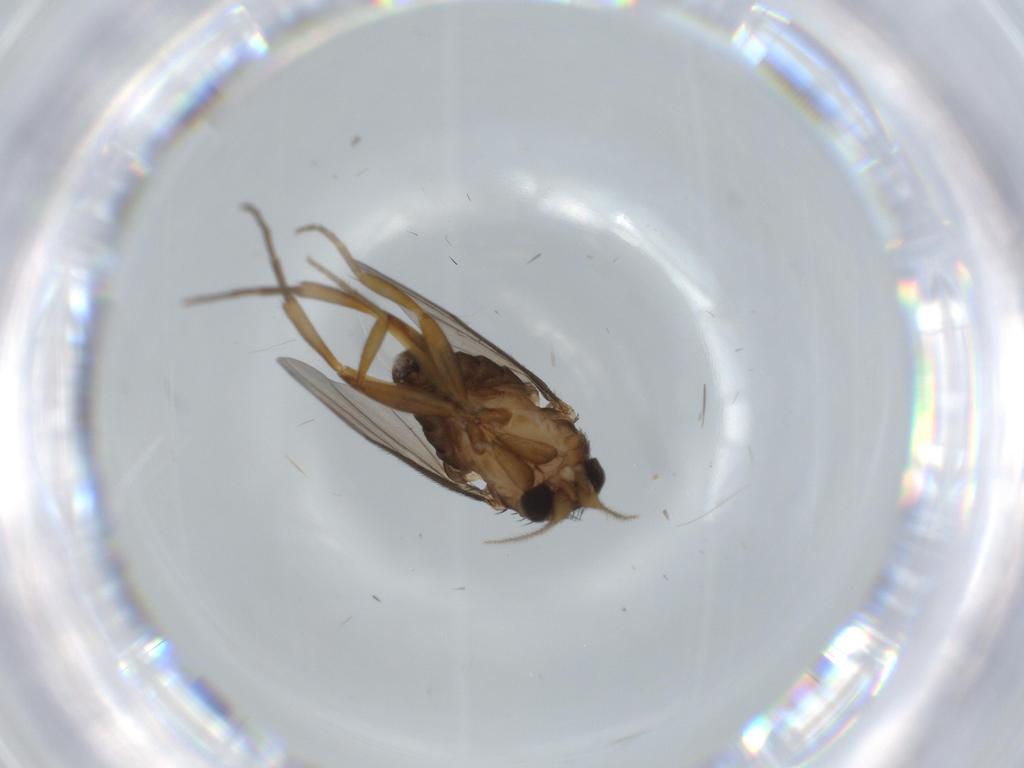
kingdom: Animalia
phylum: Arthropoda
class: Insecta
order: Diptera
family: Cecidomyiidae
